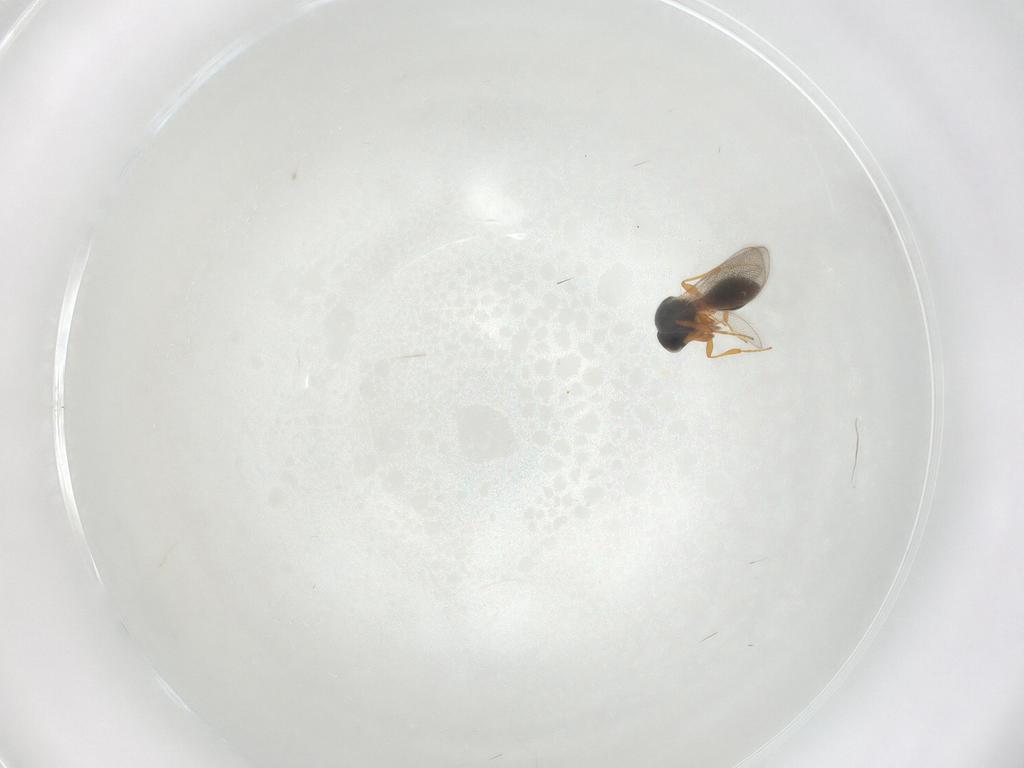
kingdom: Animalia
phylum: Arthropoda
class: Insecta
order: Hymenoptera
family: Platygastridae
